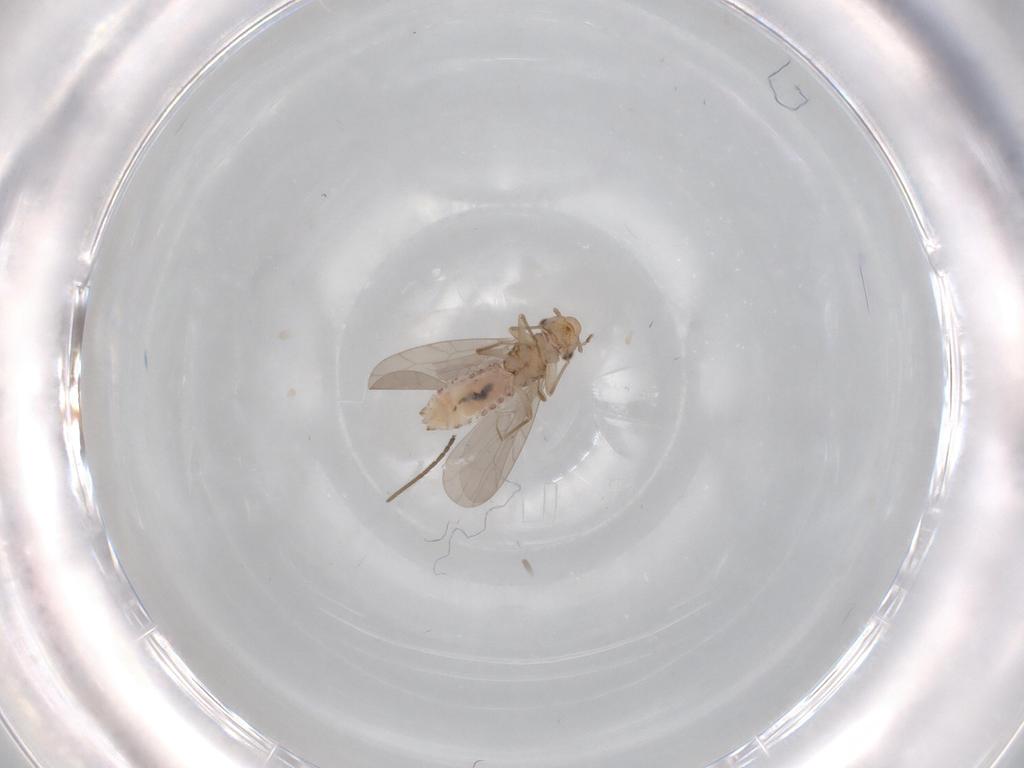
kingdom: Animalia
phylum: Arthropoda
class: Insecta
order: Psocodea
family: Lepidopsocidae
